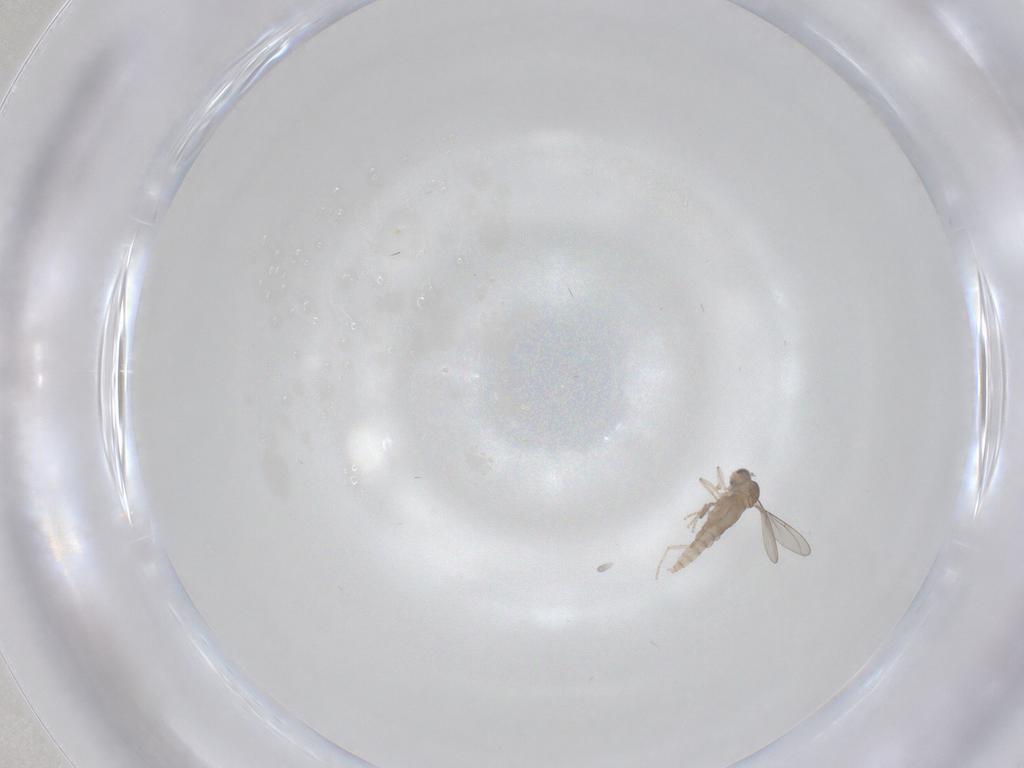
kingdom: Animalia
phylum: Arthropoda
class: Insecta
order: Diptera
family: Cecidomyiidae
